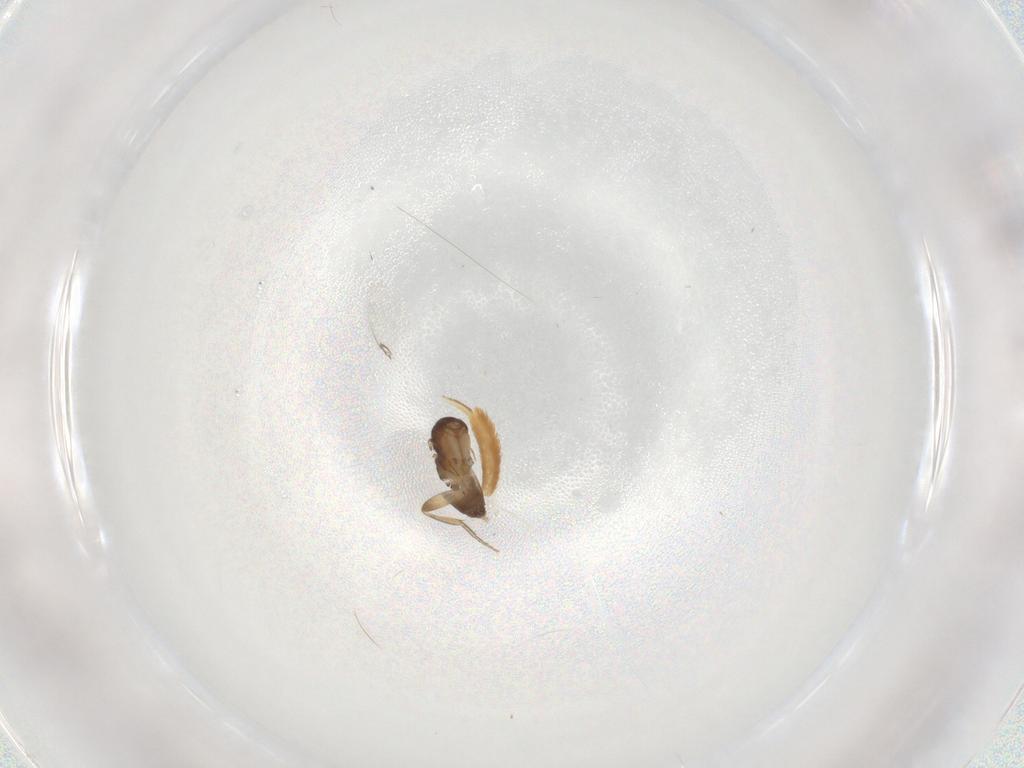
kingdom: Animalia
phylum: Arthropoda
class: Insecta
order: Diptera
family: Phoridae
